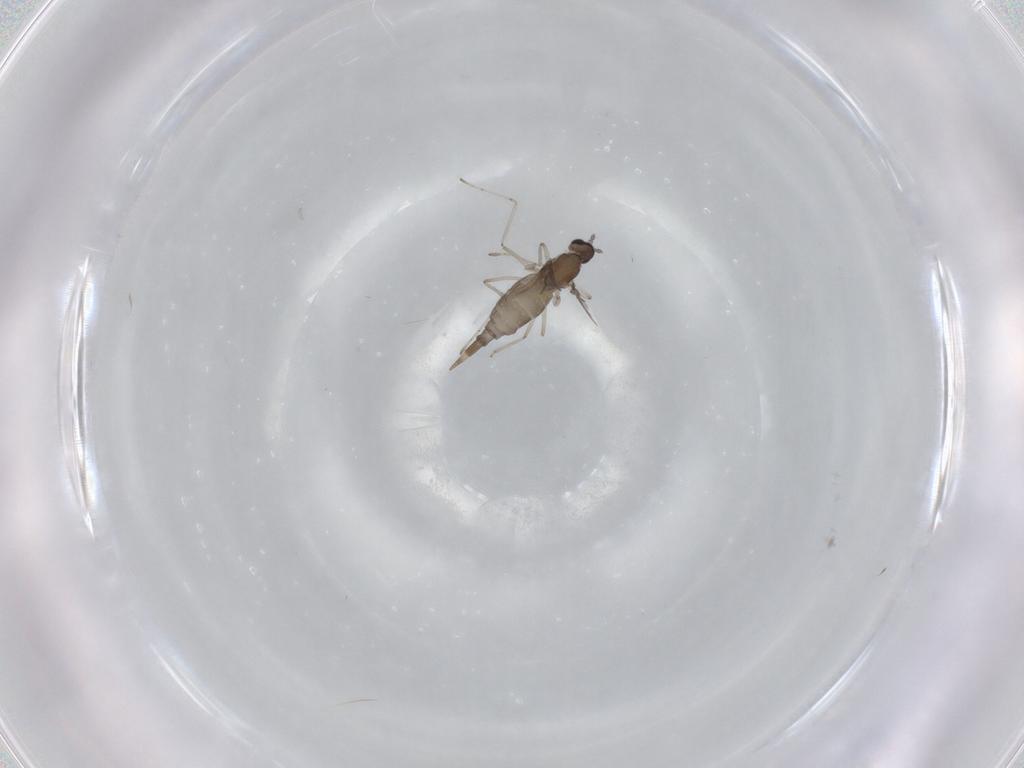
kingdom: Animalia
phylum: Arthropoda
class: Insecta
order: Diptera
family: Cecidomyiidae
